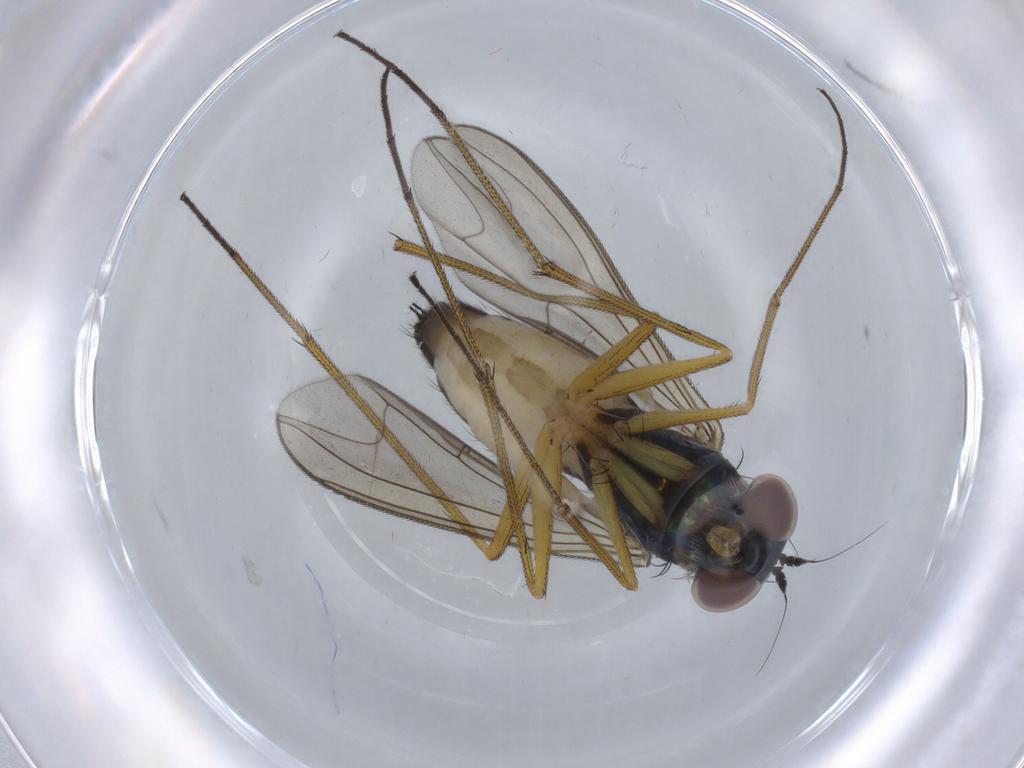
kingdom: Animalia
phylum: Arthropoda
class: Insecta
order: Diptera
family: Dolichopodidae
